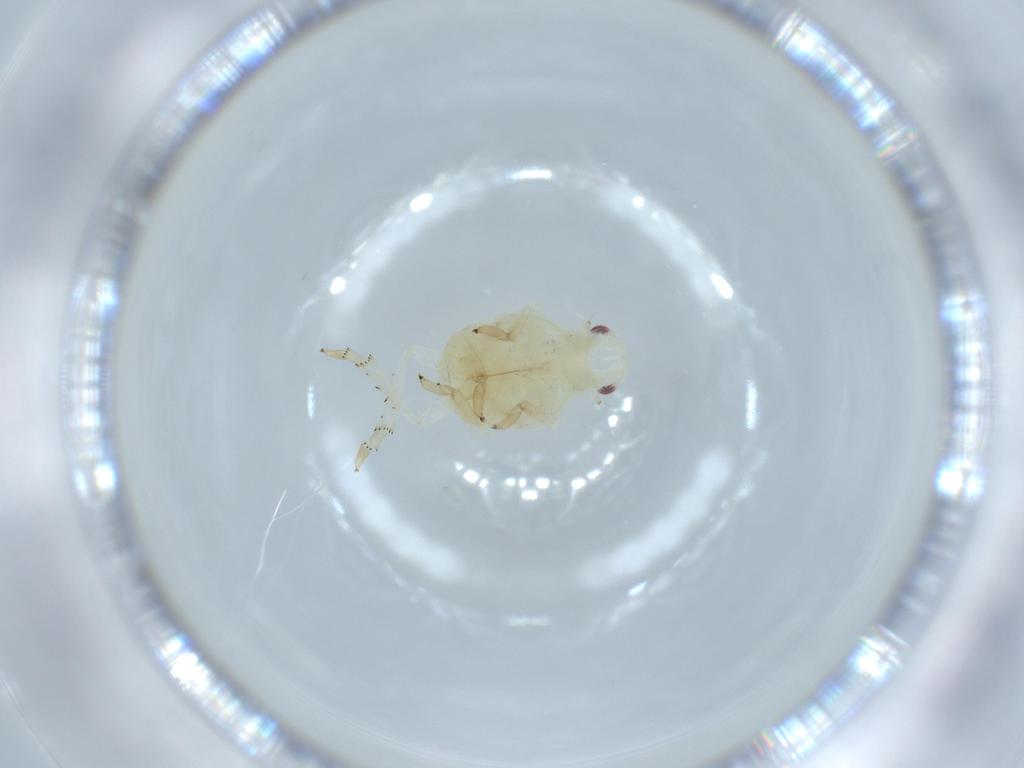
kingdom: Animalia
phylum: Arthropoda
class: Insecta
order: Hemiptera
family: Flatidae
